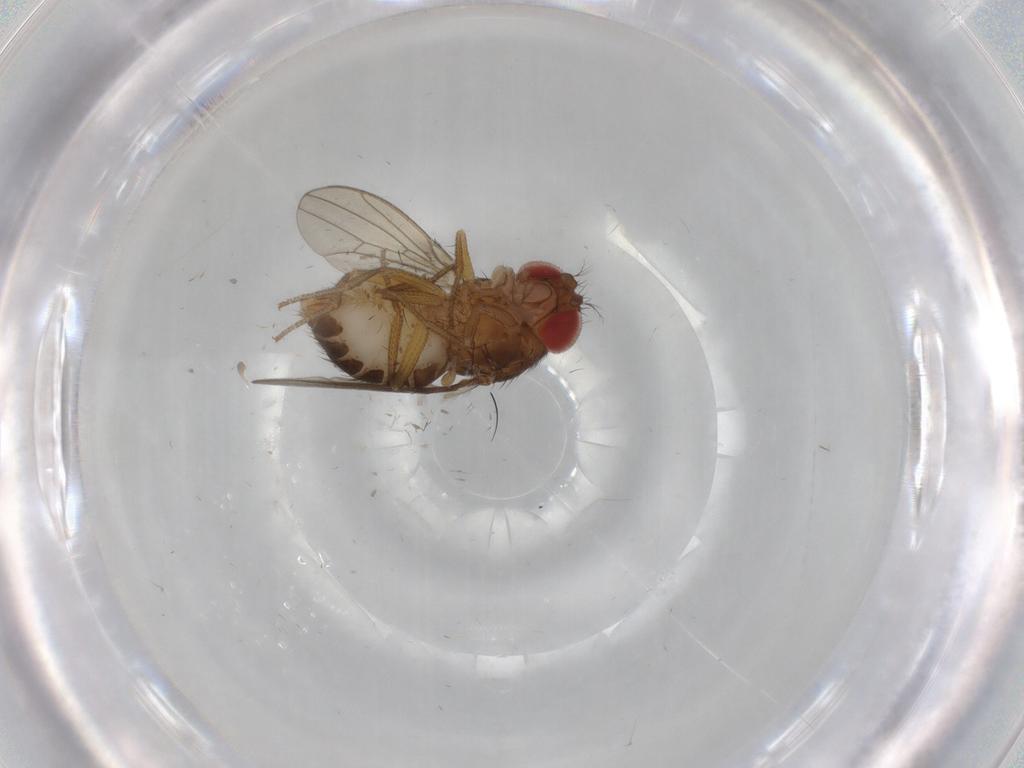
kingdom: Animalia
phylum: Arthropoda
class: Insecta
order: Diptera
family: Drosophilidae
